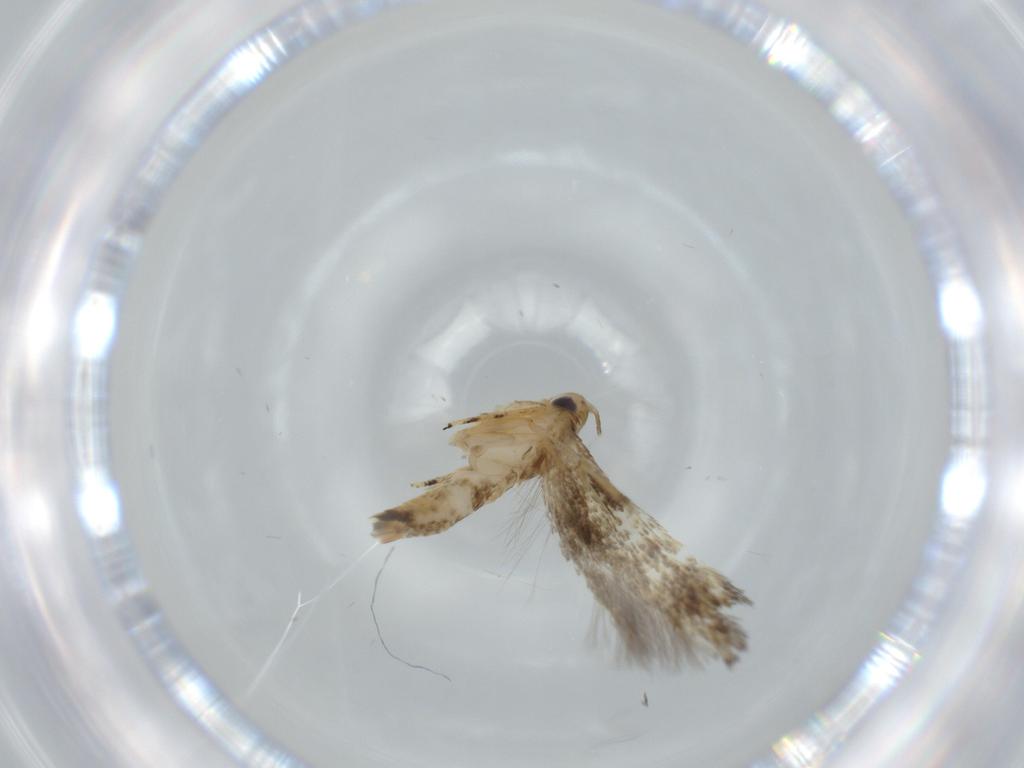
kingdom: Animalia
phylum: Arthropoda
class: Insecta
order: Lepidoptera
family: Momphidae
